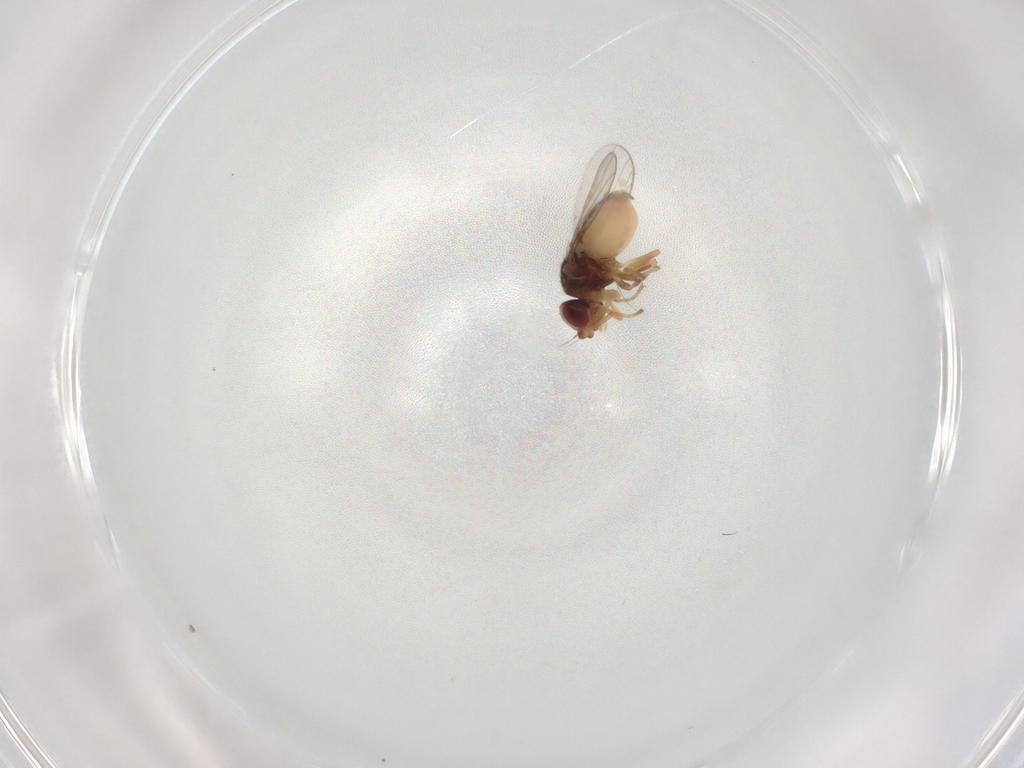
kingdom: Animalia
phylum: Arthropoda
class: Insecta
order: Diptera
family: Chloropidae
